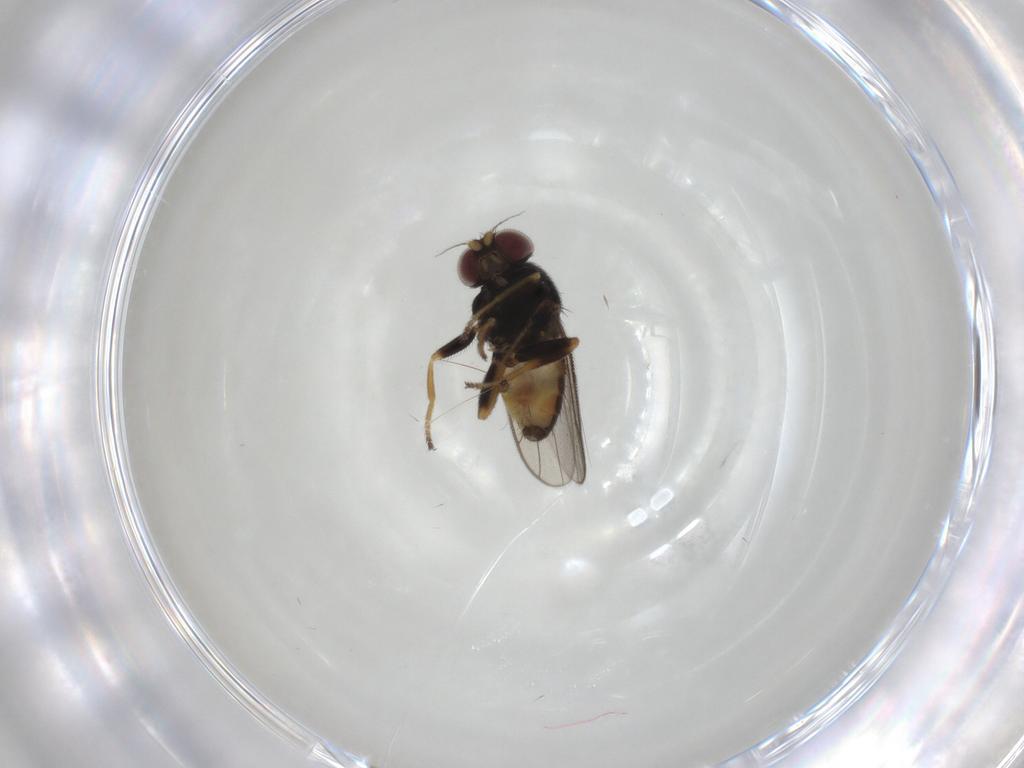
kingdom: Animalia
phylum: Arthropoda
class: Insecta
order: Diptera
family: Chloropidae
